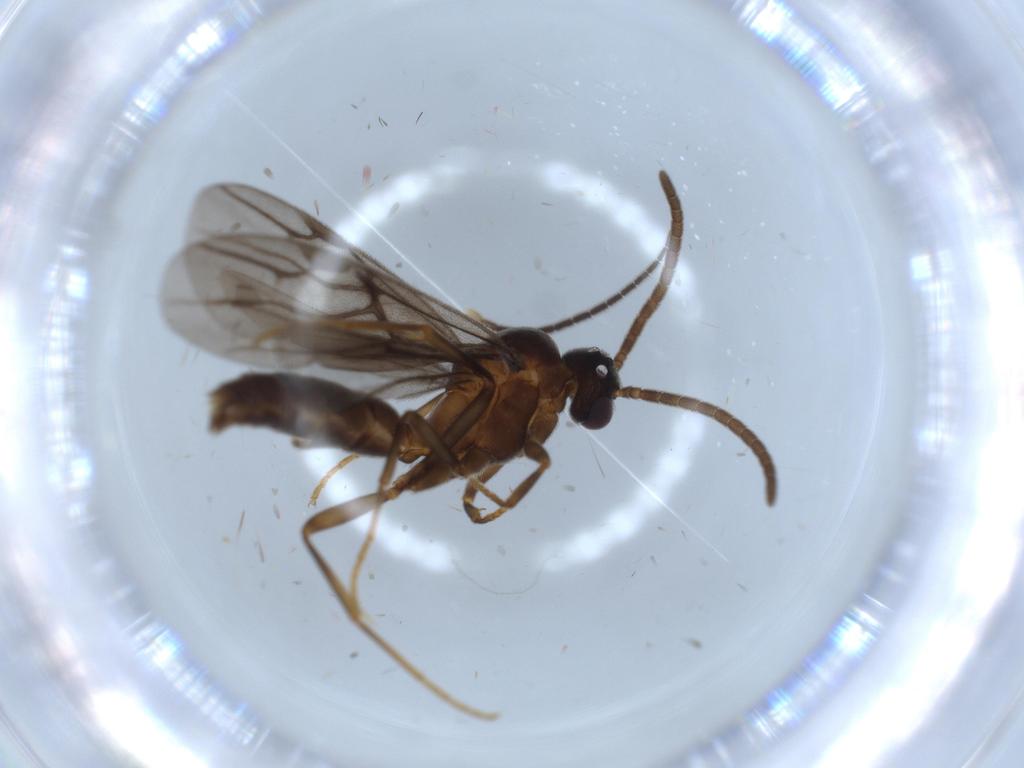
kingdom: Animalia
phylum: Arthropoda
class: Insecta
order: Hymenoptera
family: Formicidae
